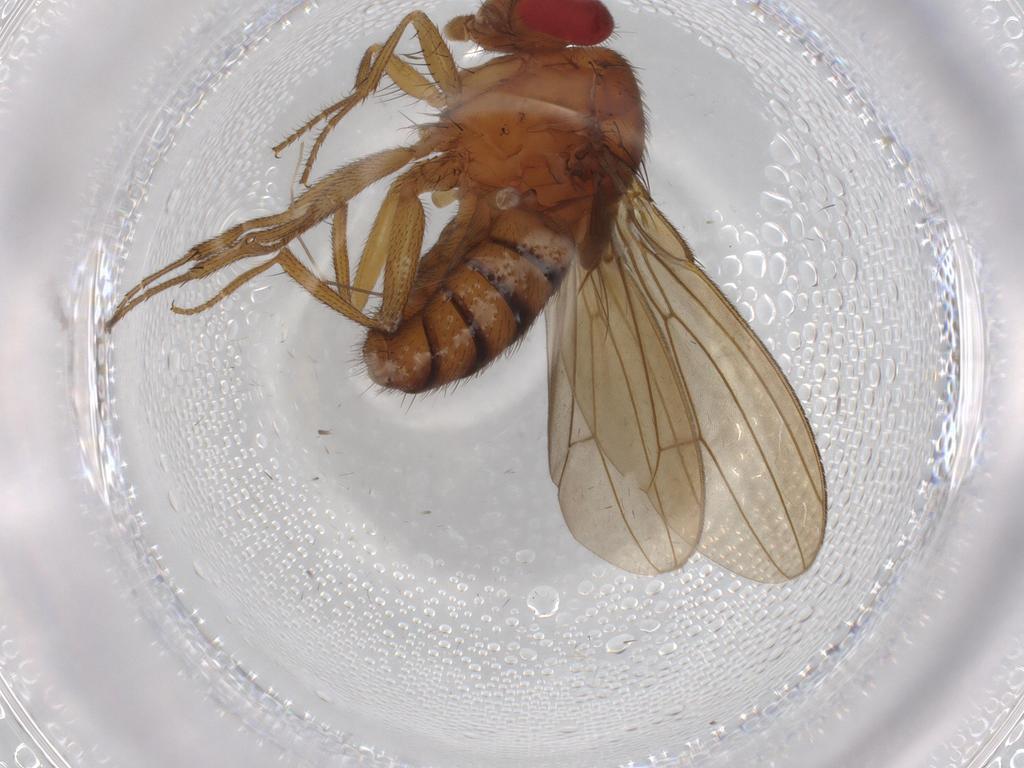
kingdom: Animalia
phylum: Arthropoda
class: Insecta
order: Diptera
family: Drosophilidae
